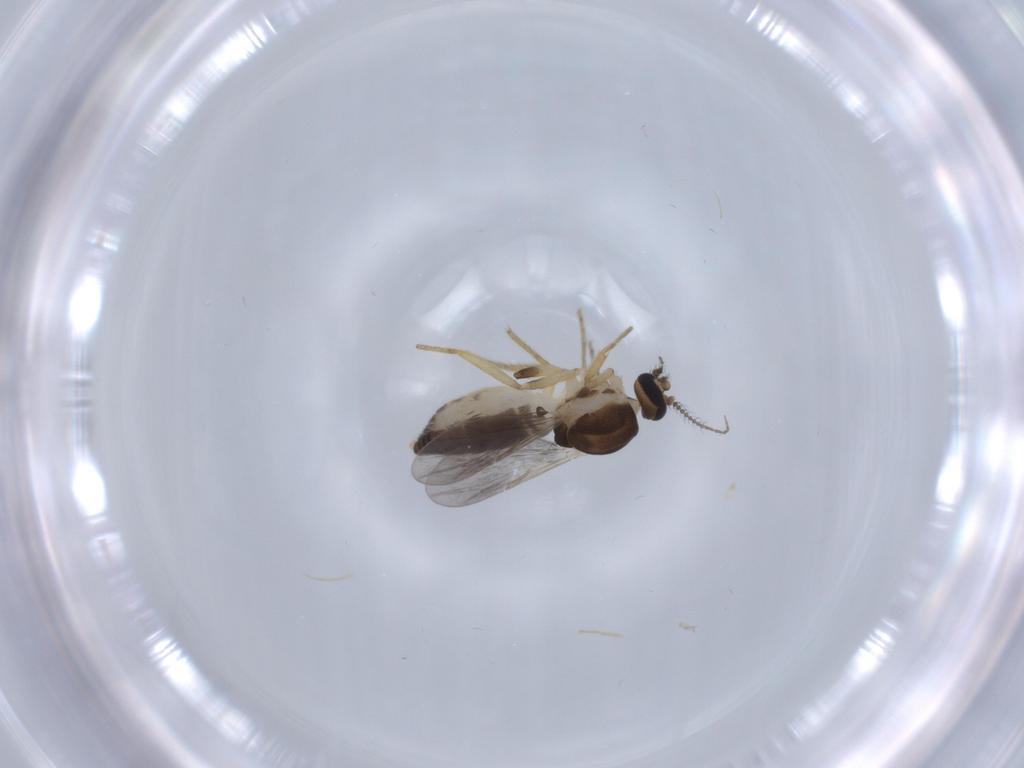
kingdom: Animalia
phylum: Arthropoda
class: Insecta
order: Diptera
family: Ceratopogonidae
